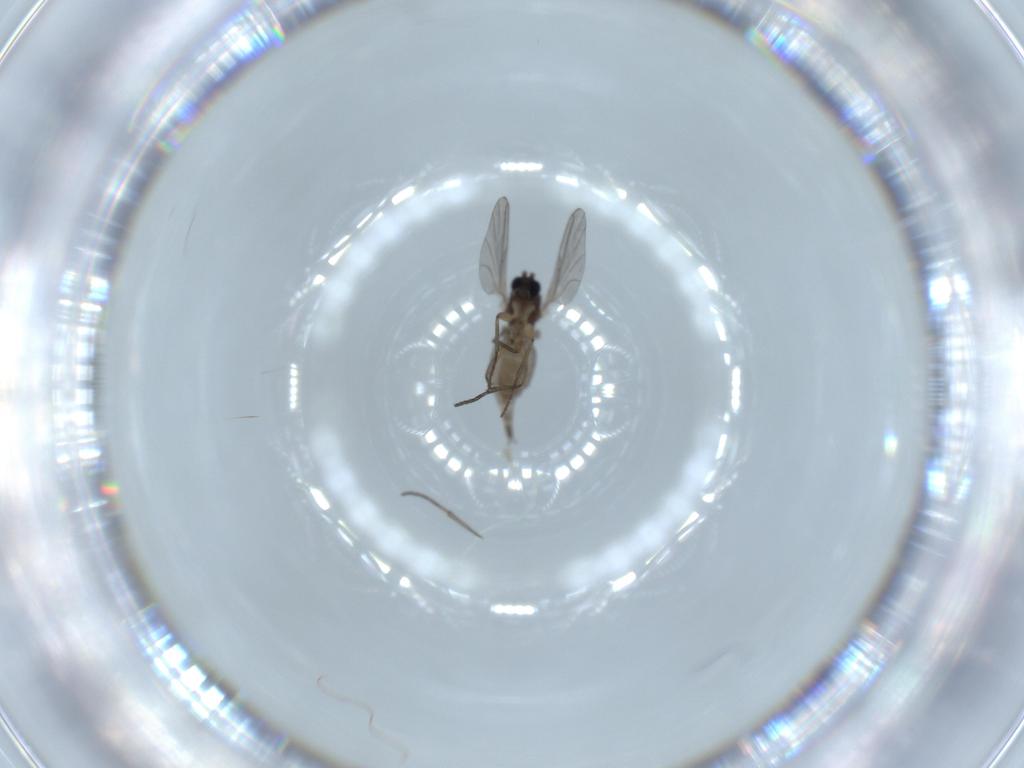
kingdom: Animalia
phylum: Arthropoda
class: Insecta
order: Diptera
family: Sciaridae
